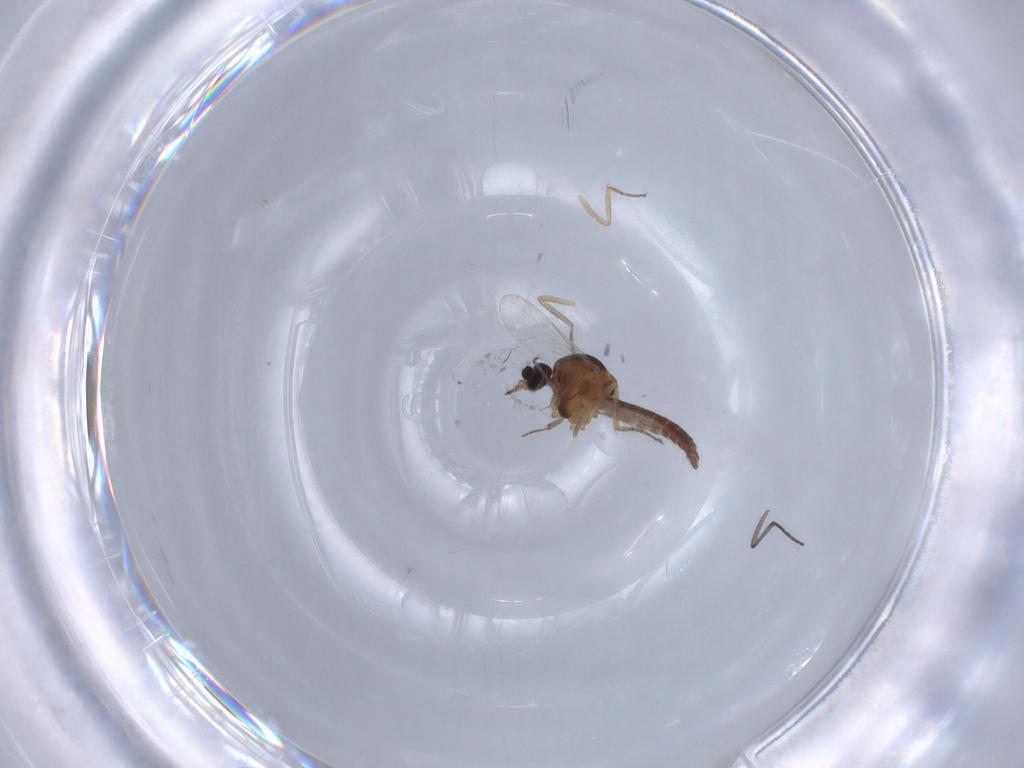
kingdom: Animalia
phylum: Arthropoda
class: Insecta
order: Diptera
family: Ceratopogonidae
